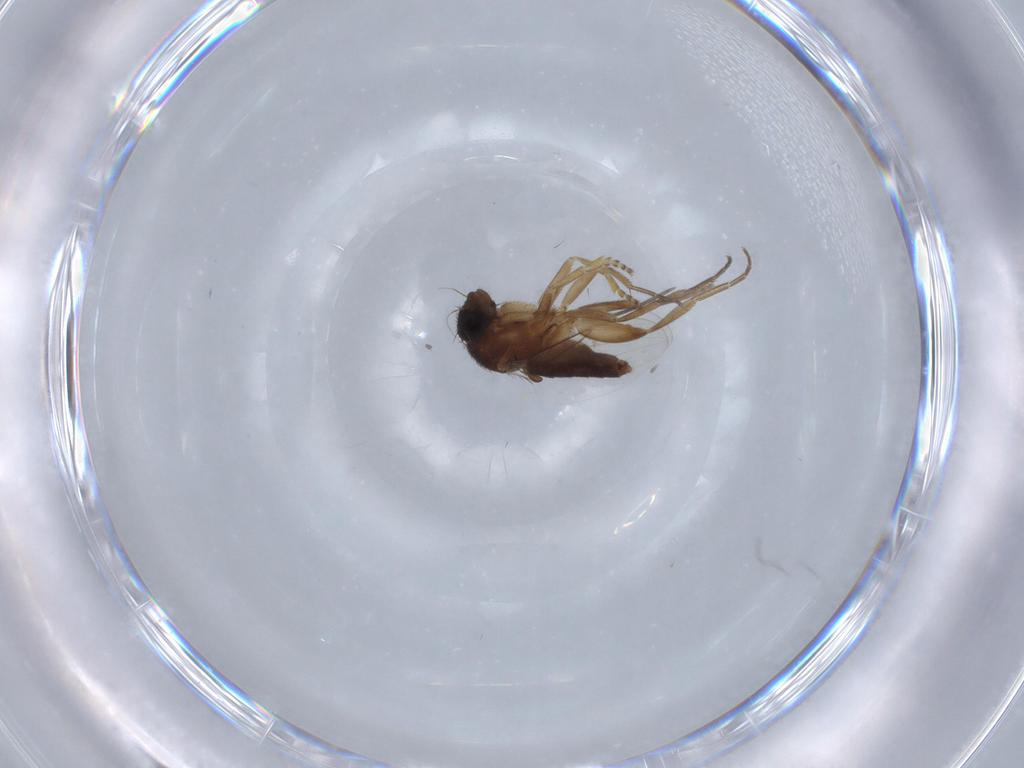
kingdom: Animalia
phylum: Arthropoda
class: Insecta
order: Diptera
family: Phoridae
